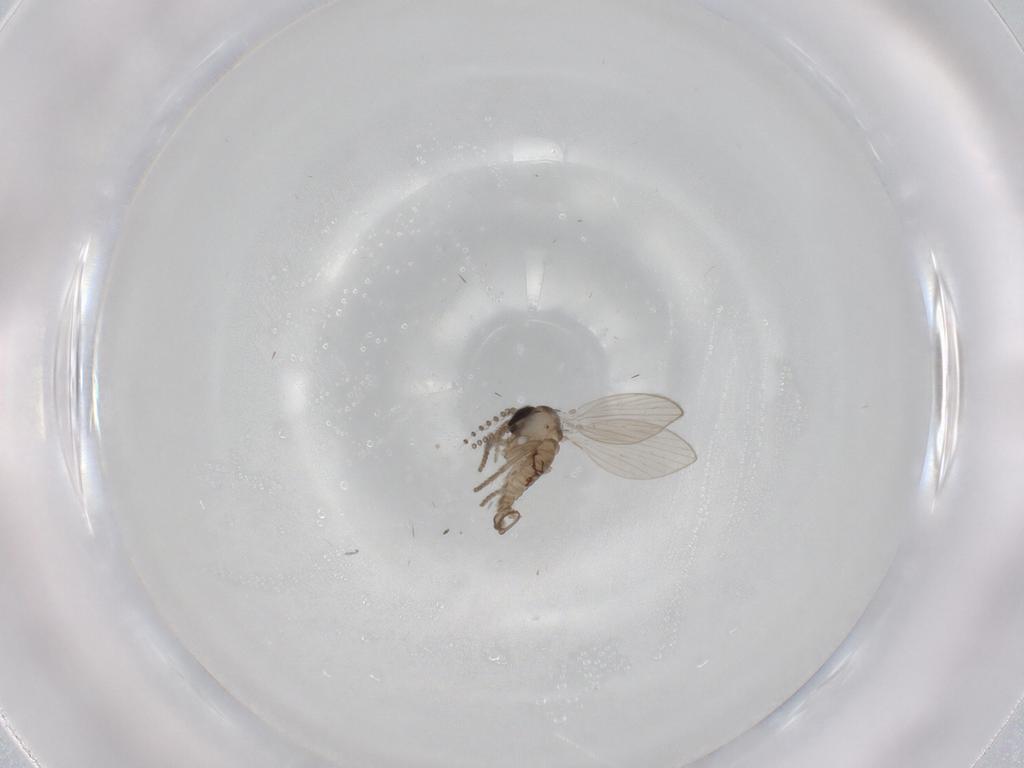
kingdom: Animalia
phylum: Arthropoda
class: Insecta
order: Diptera
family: Psychodidae
